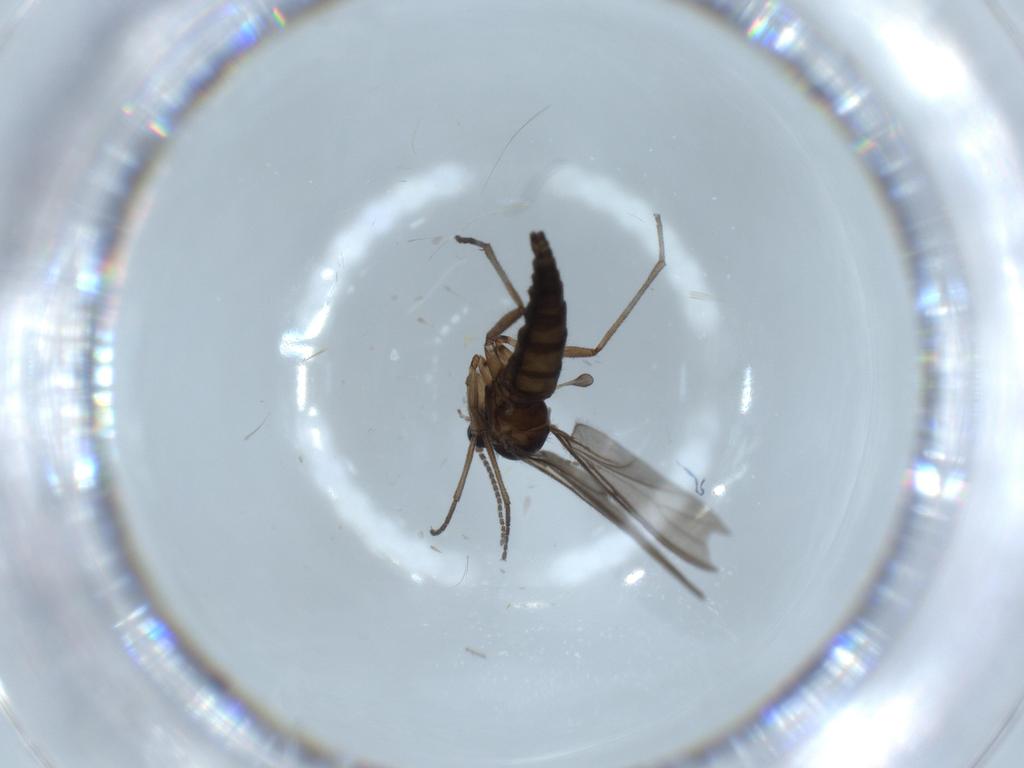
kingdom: Animalia
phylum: Arthropoda
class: Insecta
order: Diptera
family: Sciaridae
